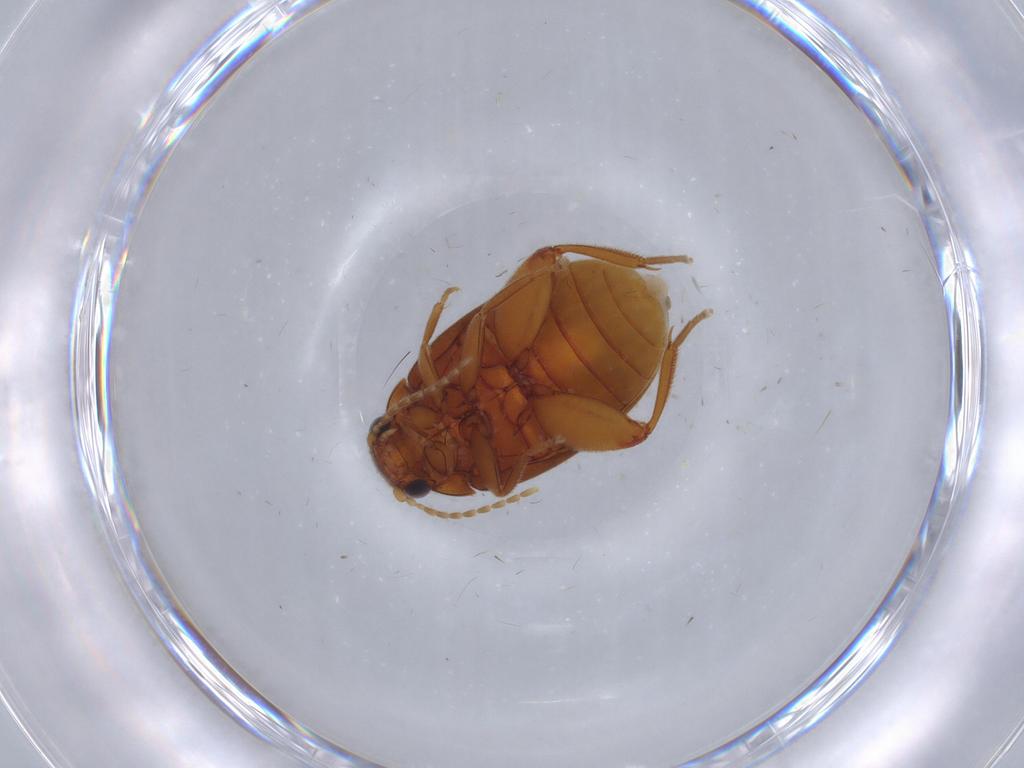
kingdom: Animalia
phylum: Arthropoda
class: Insecta
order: Coleoptera
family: Scirtidae
